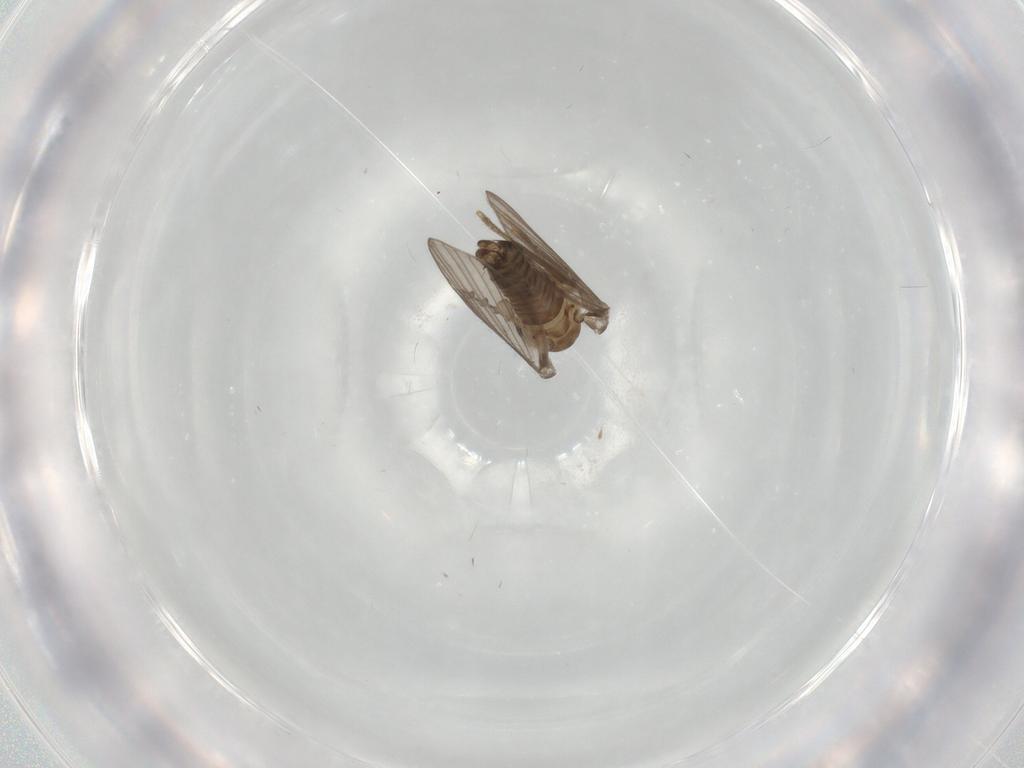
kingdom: Animalia
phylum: Arthropoda
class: Insecta
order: Diptera
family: Psychodidae
